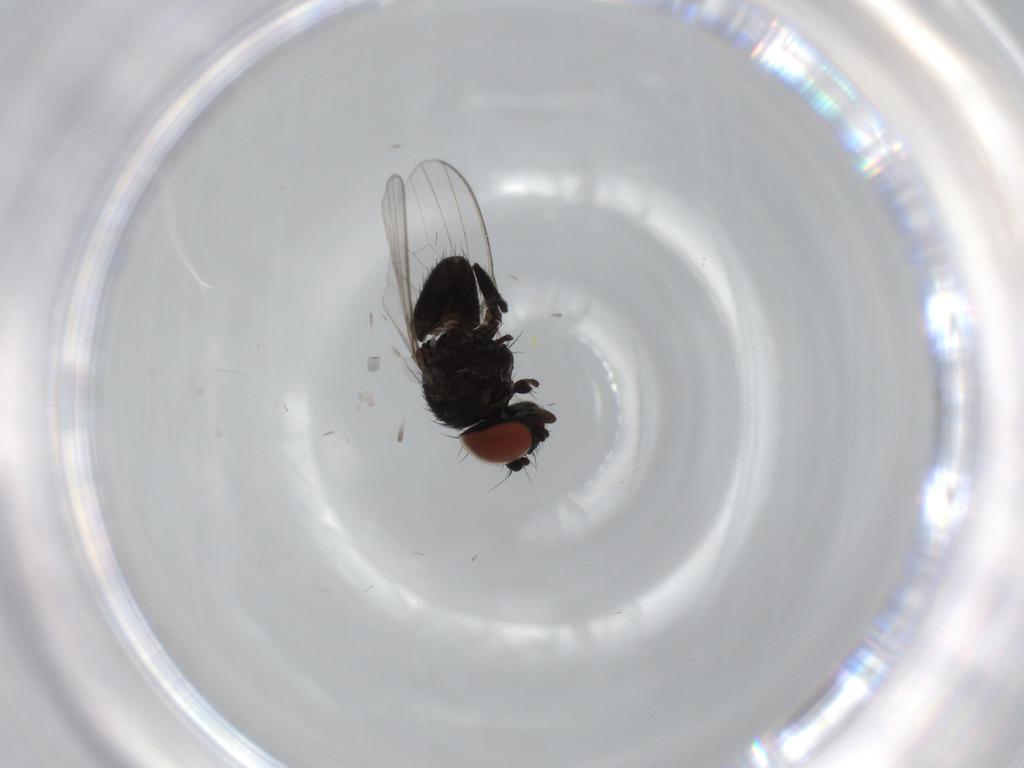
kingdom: Animalia
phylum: Arthropoda
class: Insecta
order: Diptera
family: Milichiidae
